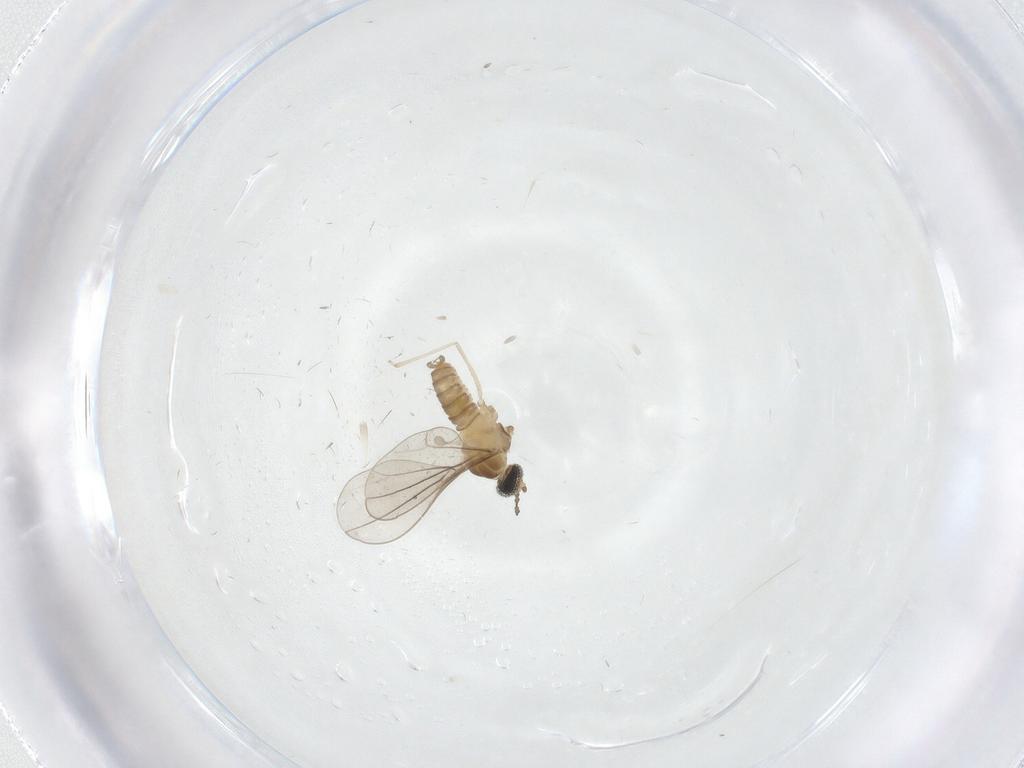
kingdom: Animalia
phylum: Arthropoda
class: Insecta
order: Diptera
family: Cecidomyiidae
